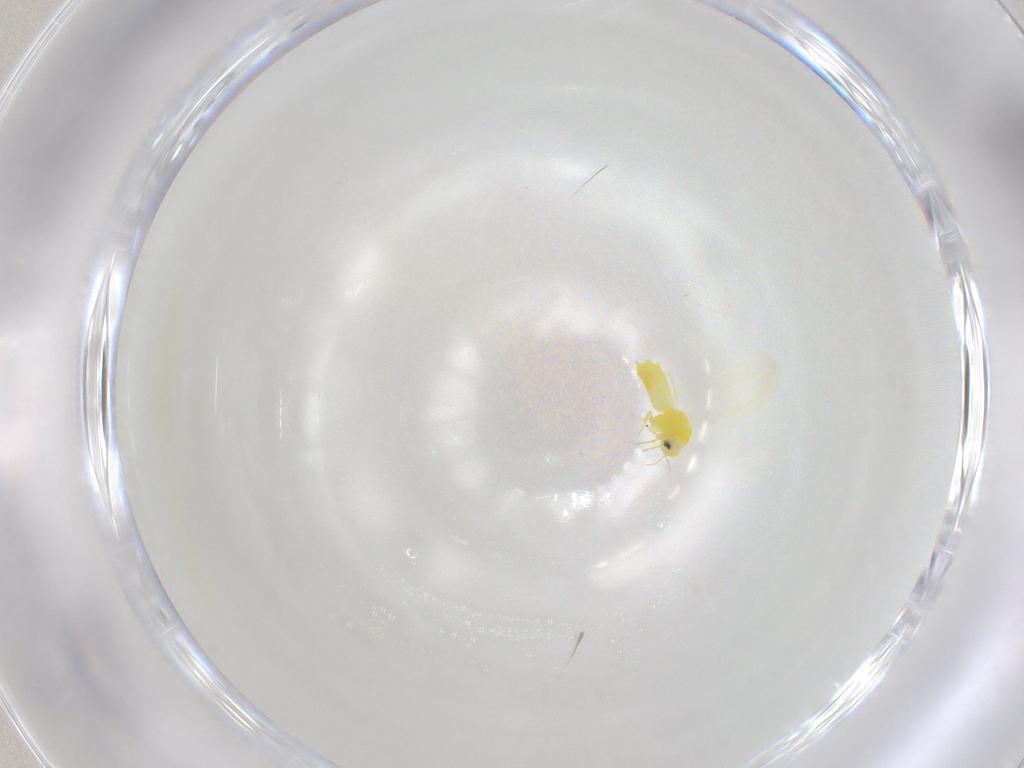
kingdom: Animalia
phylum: Arthropoda
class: Insecta
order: Hemiptera
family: Aleyrodidae
